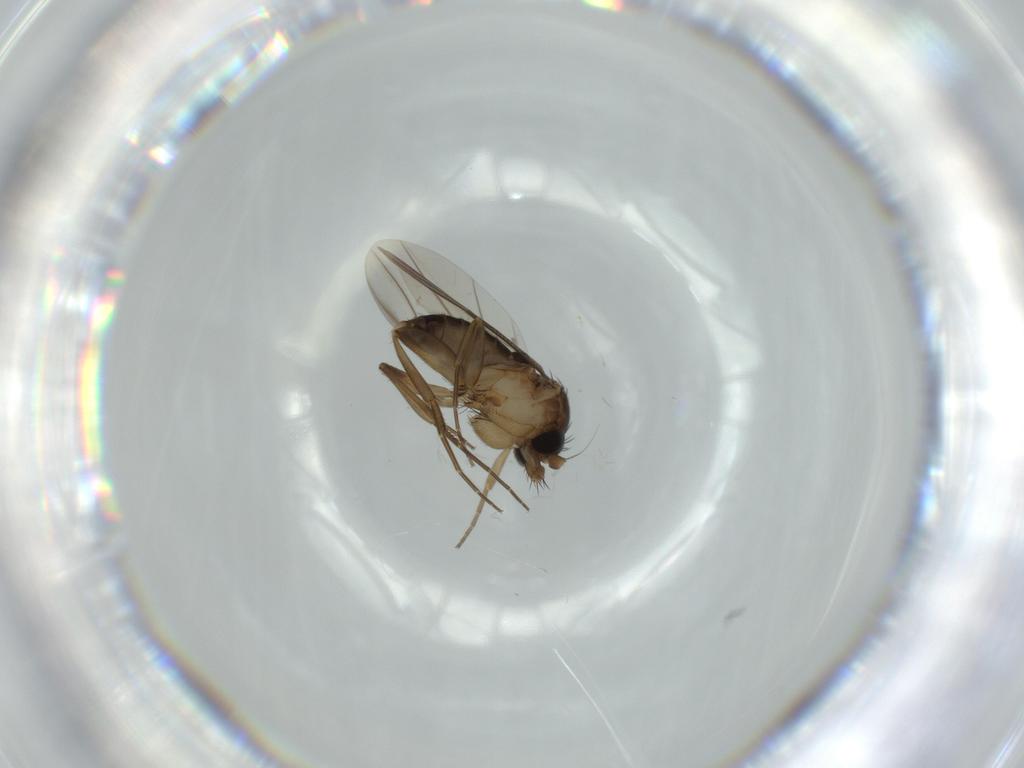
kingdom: Animalia
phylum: Arthropoda
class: Insecta
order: Diptera
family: Phoridae
